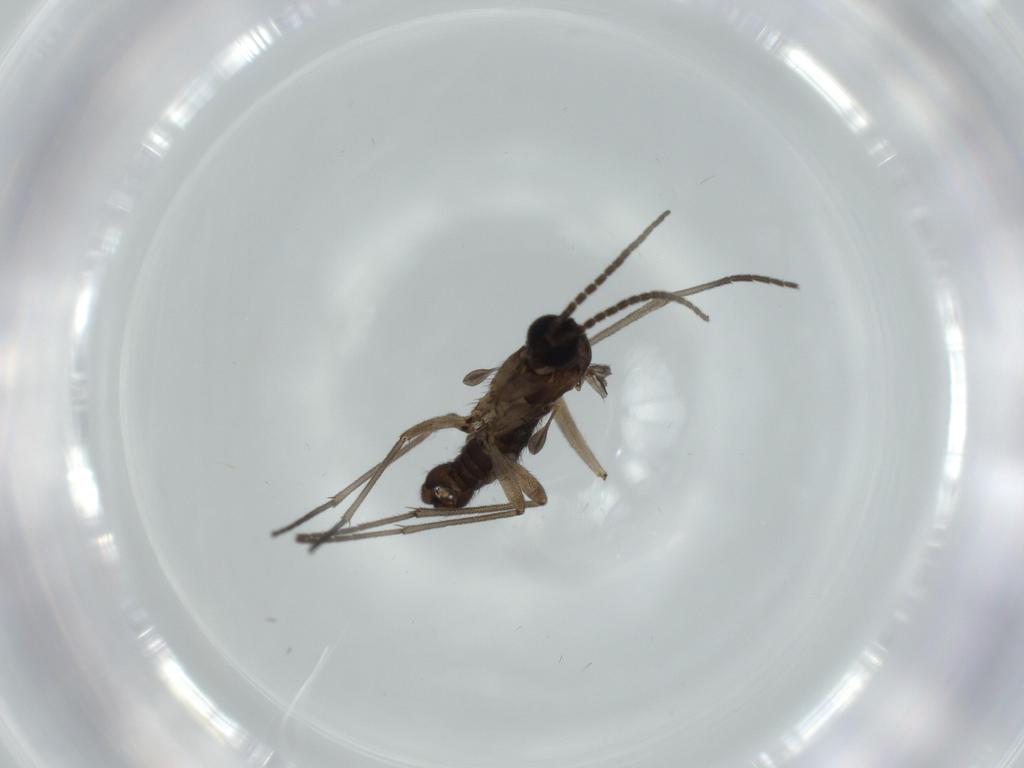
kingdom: Animalia
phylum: Arthropoda
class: Insecta
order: Diptera
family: Sciaridae
